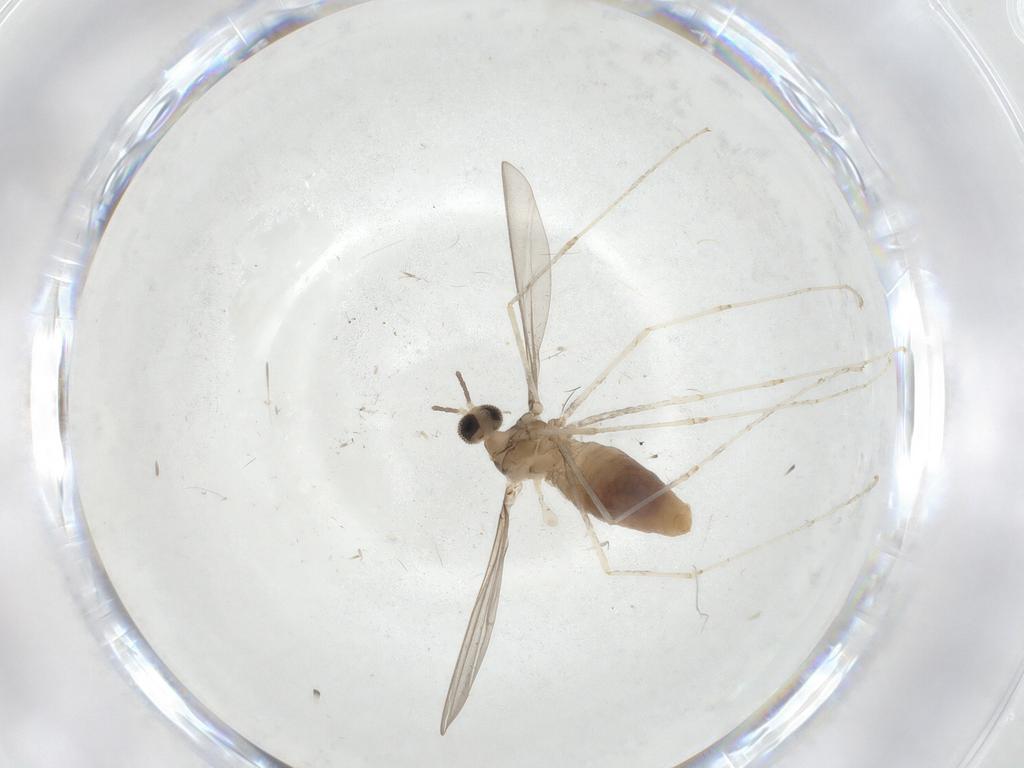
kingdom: Animalia
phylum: Arthropoda
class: Insecta
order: Diptera
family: Cecidomyiidae
